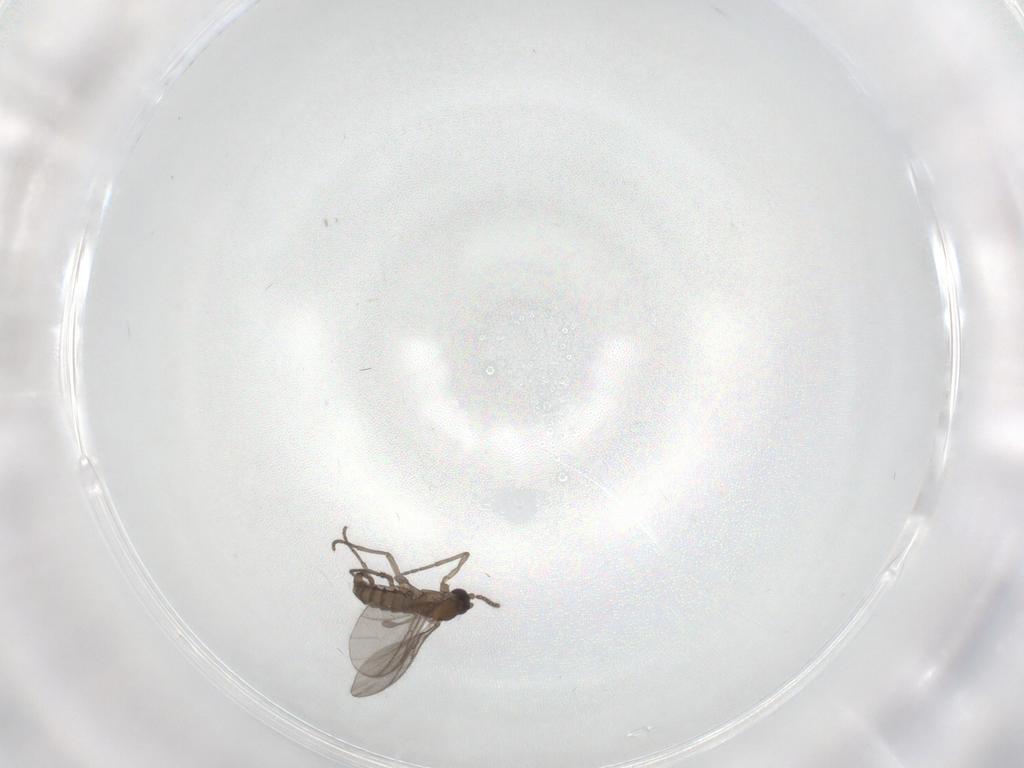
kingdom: Animalia
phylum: Arthropoda
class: Insecta
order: Diptera
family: Sciaridae
